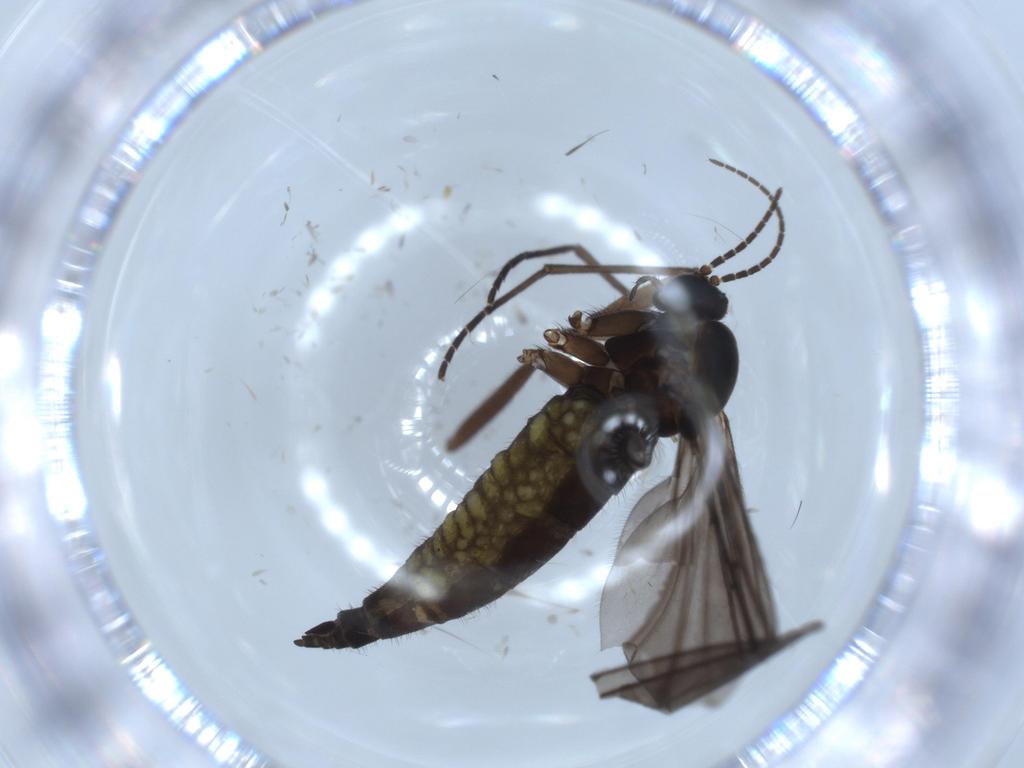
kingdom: Animalia
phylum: Arthropoda
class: Insecta
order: Diptera
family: Sciaridae
